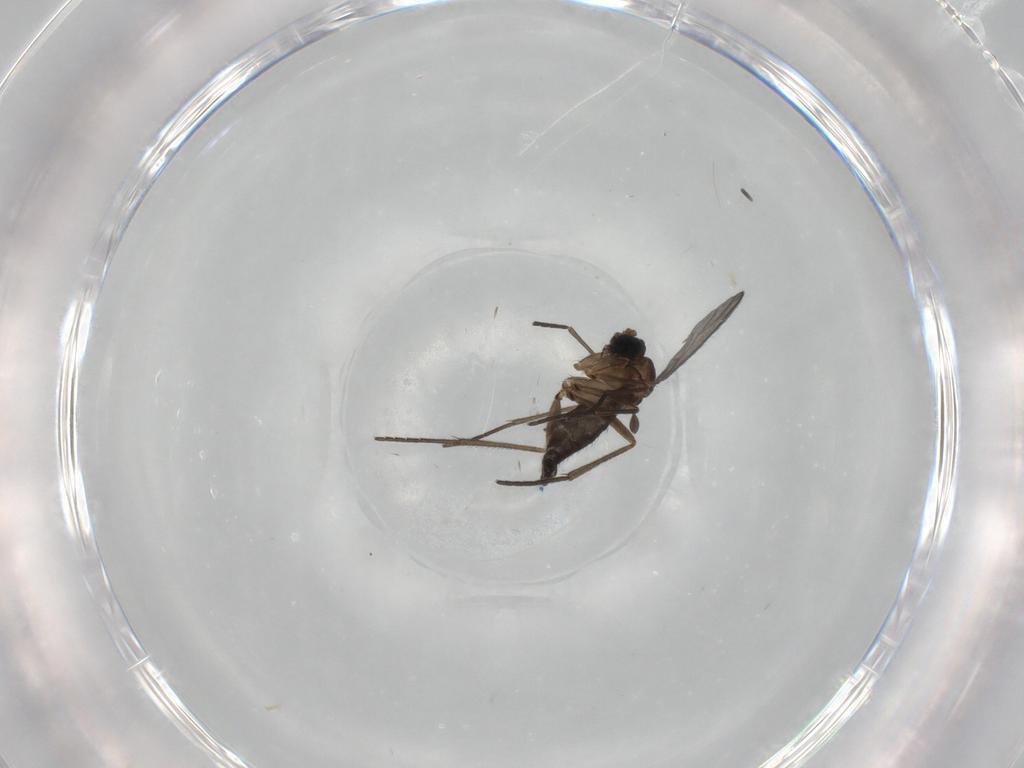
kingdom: Animalia
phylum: Arthropoda
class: Insecta
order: Diptera
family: Sciaridae
